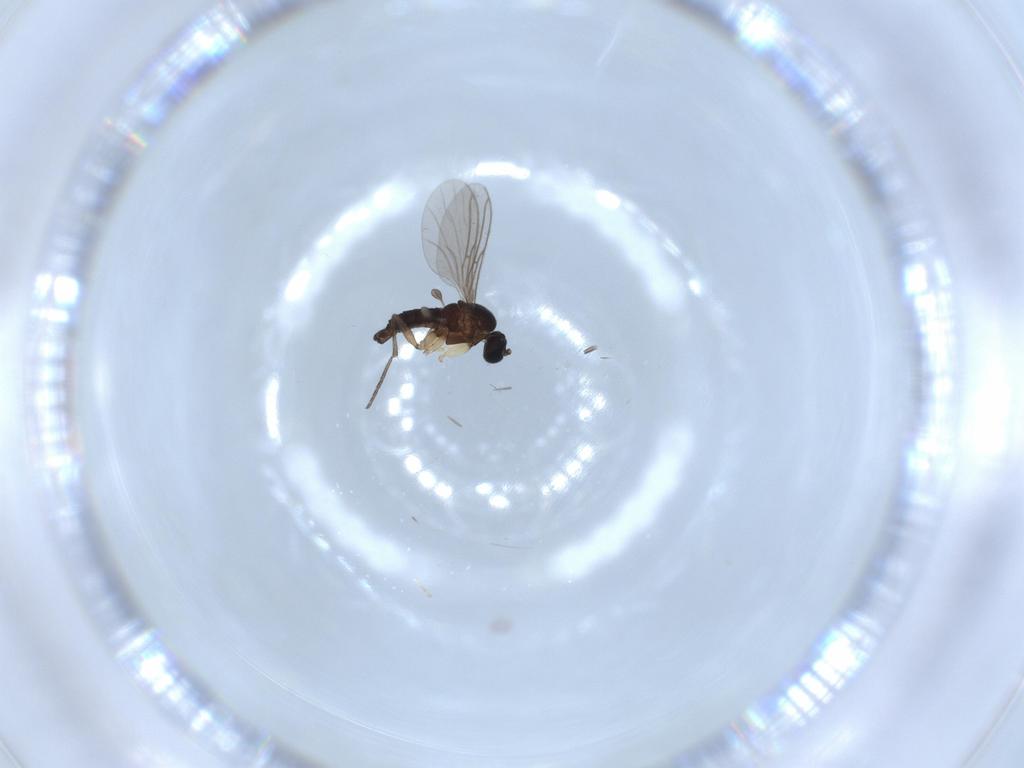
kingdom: Animalia
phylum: Arthropoda
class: Insecta
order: Diptera
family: Sciaridae
